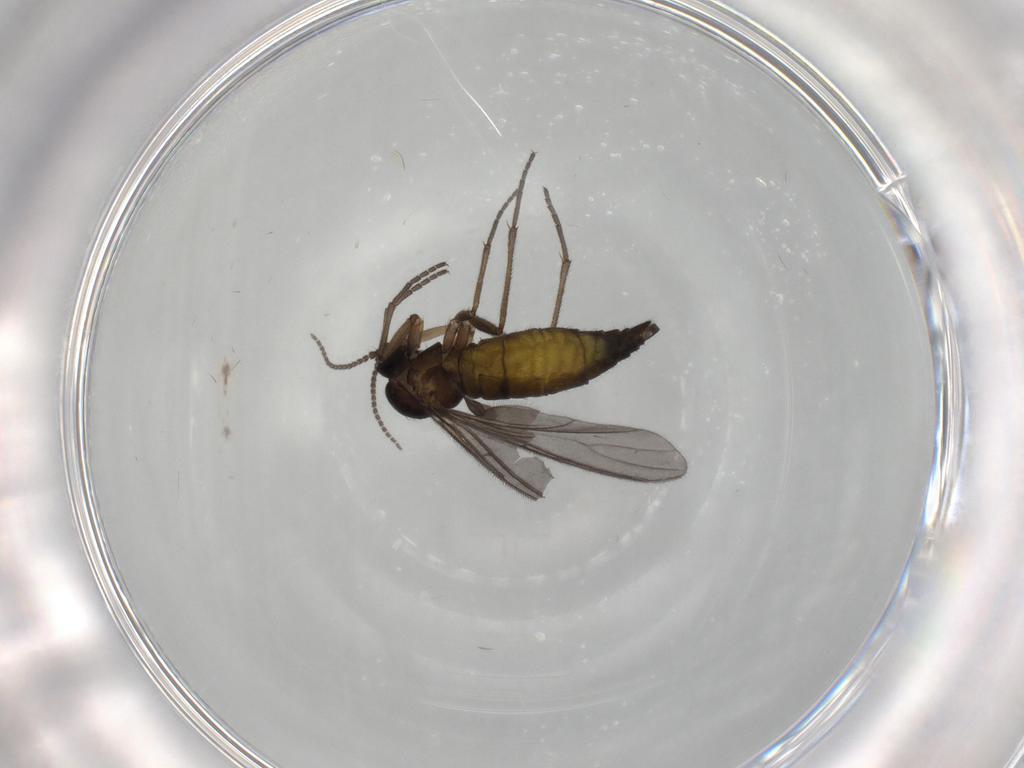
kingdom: Animalia
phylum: Arthropoda
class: Insecta
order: Diptera
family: Sciaridae
